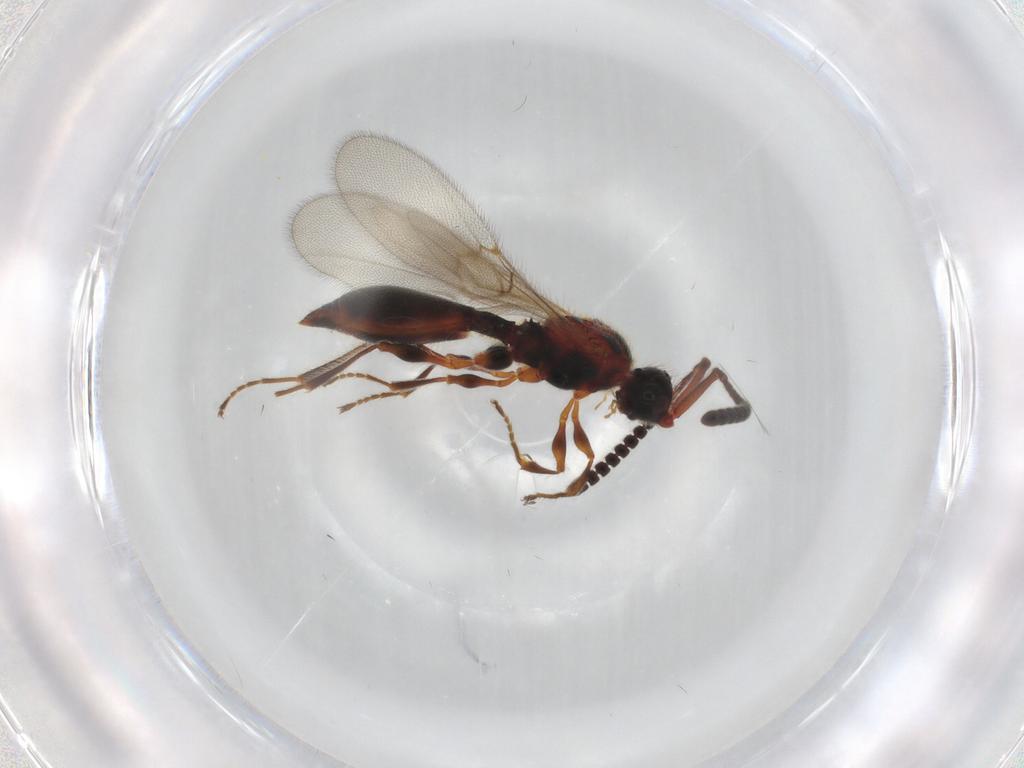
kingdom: Animalia
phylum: Arthropoda
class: Insecta
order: Hymenoptera
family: Diapriidae
